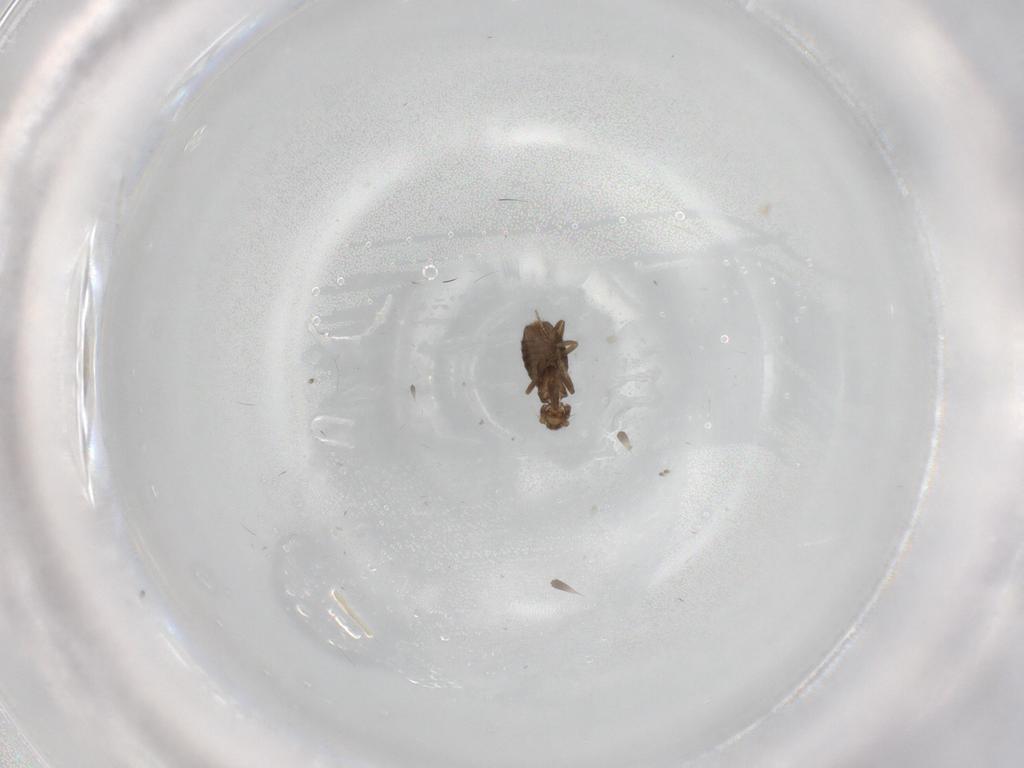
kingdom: Animalia
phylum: Arthropoda
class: Insecta
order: Diptera
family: Phoridae
